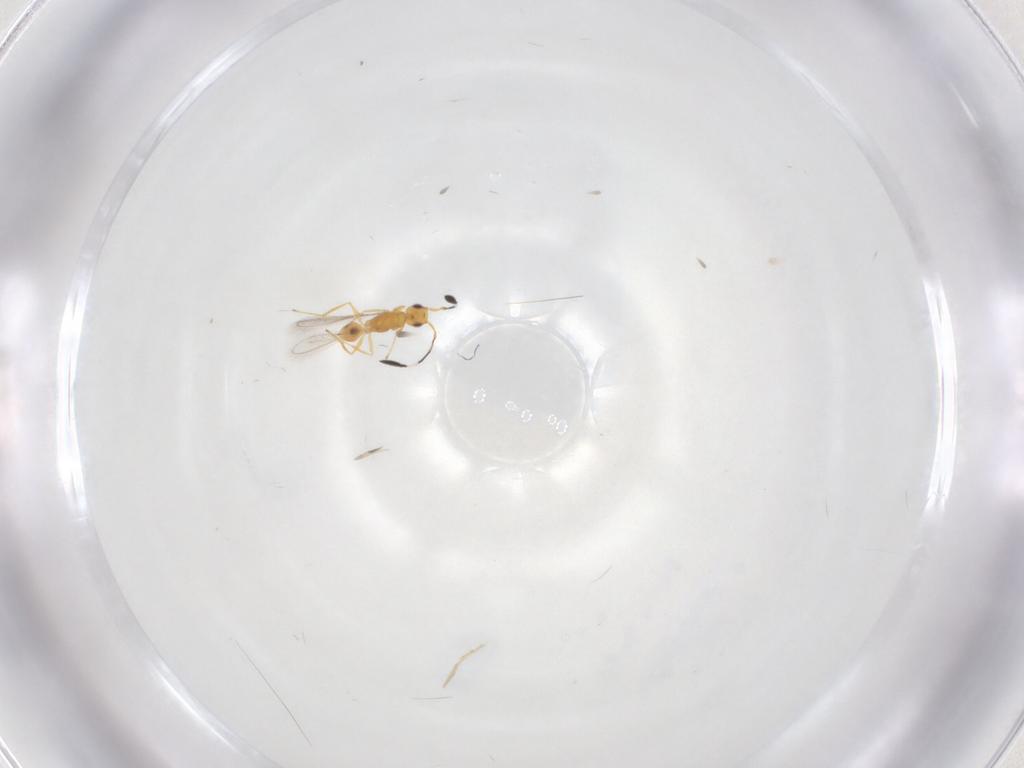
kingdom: Animalia
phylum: Arthropoda
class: Insecta
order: Hymenoptera
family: Mymaridae
